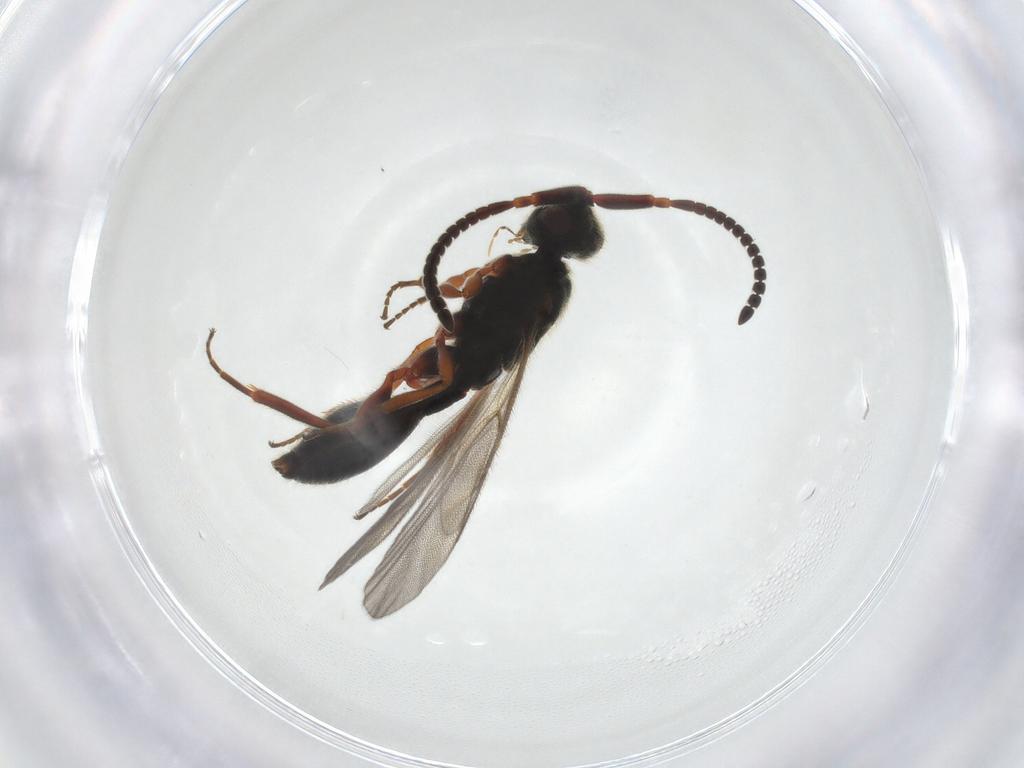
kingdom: Animalia
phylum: Arthropoda
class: Insecta
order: Hymenoptera
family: Diapriidae
